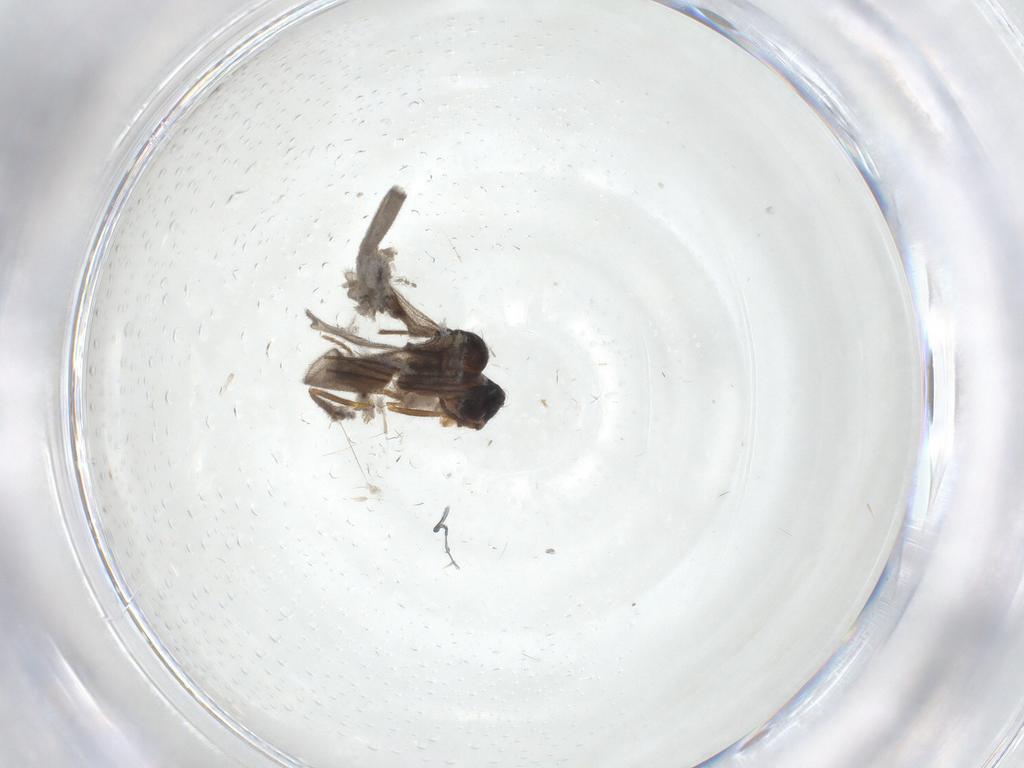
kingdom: Animalia
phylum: Arthropoda
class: Insecta
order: Diptera
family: Cecidomyiidae
